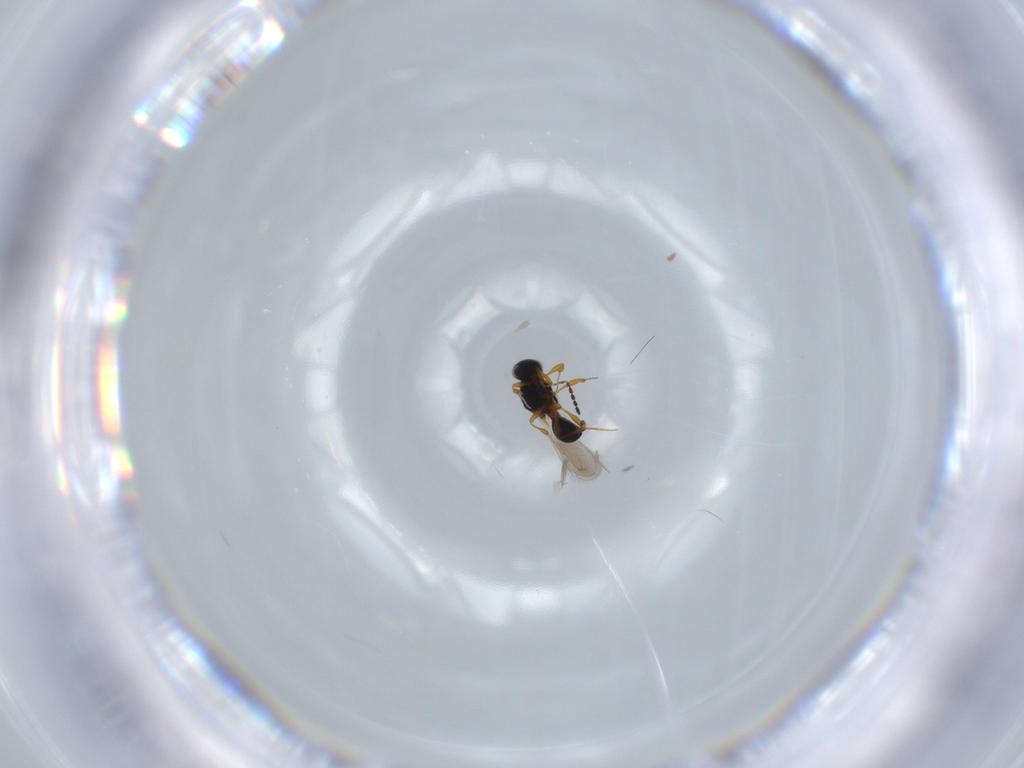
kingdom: Animalia
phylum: Arthropoda
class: Insecta
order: Hymenoptera
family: Platygastridae
